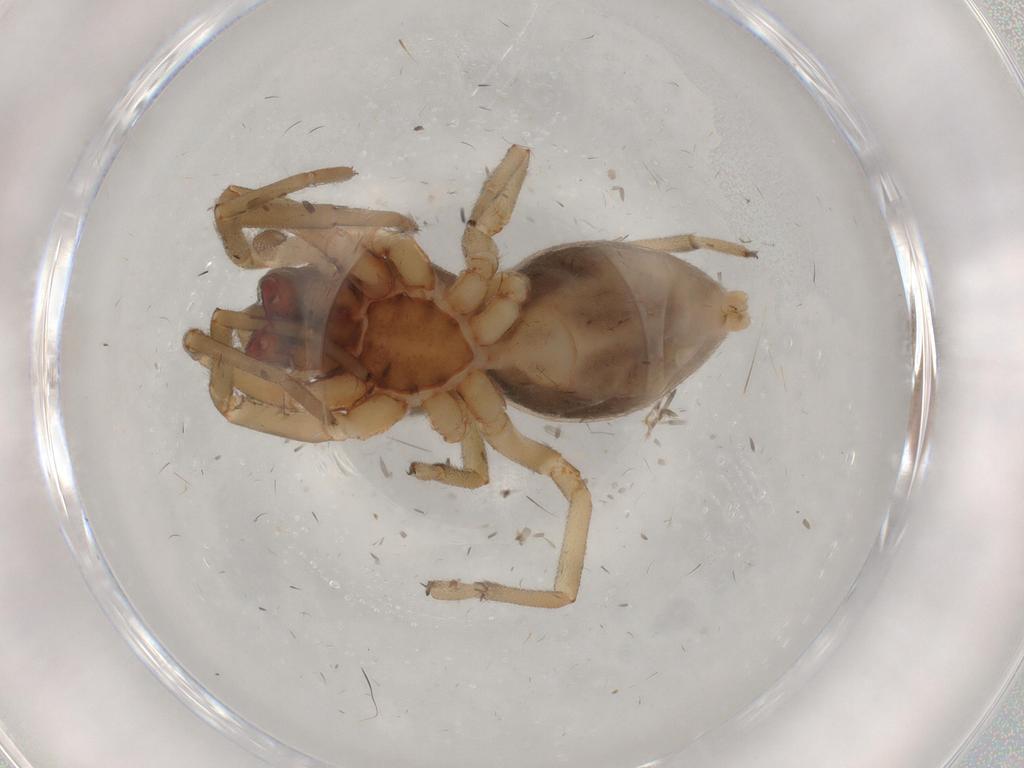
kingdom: Animalia
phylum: Arthropoda
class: Arachnida
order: Araneae
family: Trachelidae
